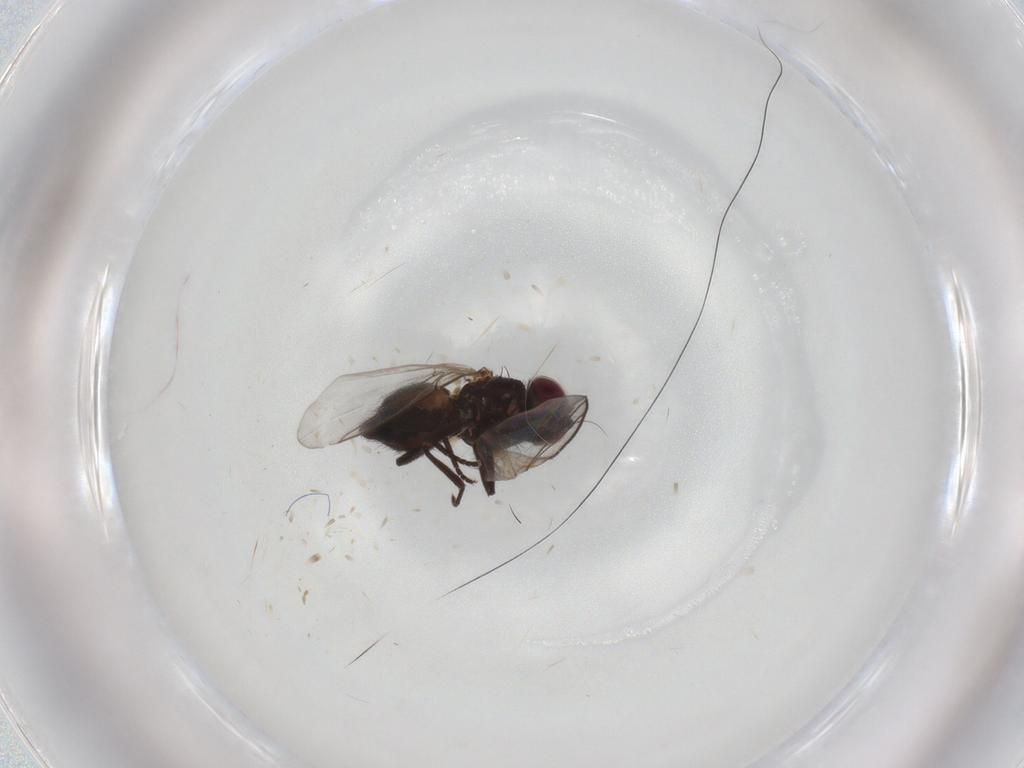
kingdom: Animalia
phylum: Arthropoda
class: Insecta
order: Diptera
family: Agromyzidae
